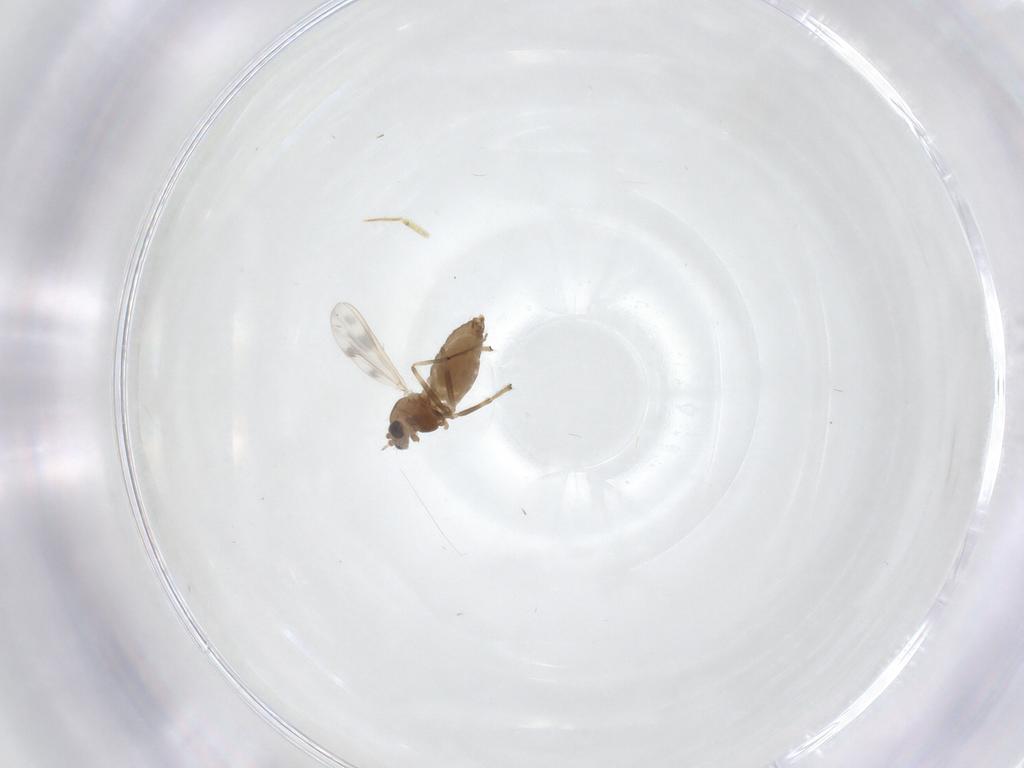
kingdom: Animalia
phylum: Arthropoda
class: Insecta
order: Diptera
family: Chironomidae
